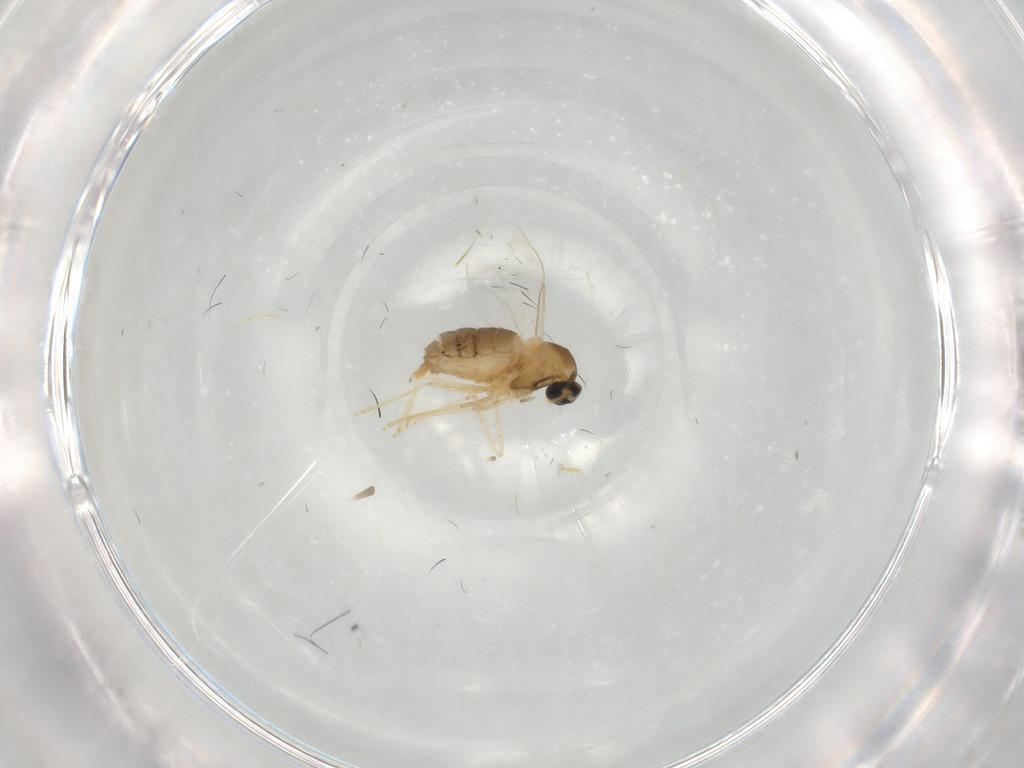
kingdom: Animalia
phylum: Arthropoda
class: Insecta
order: Diptera
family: Cecidomyiidae
